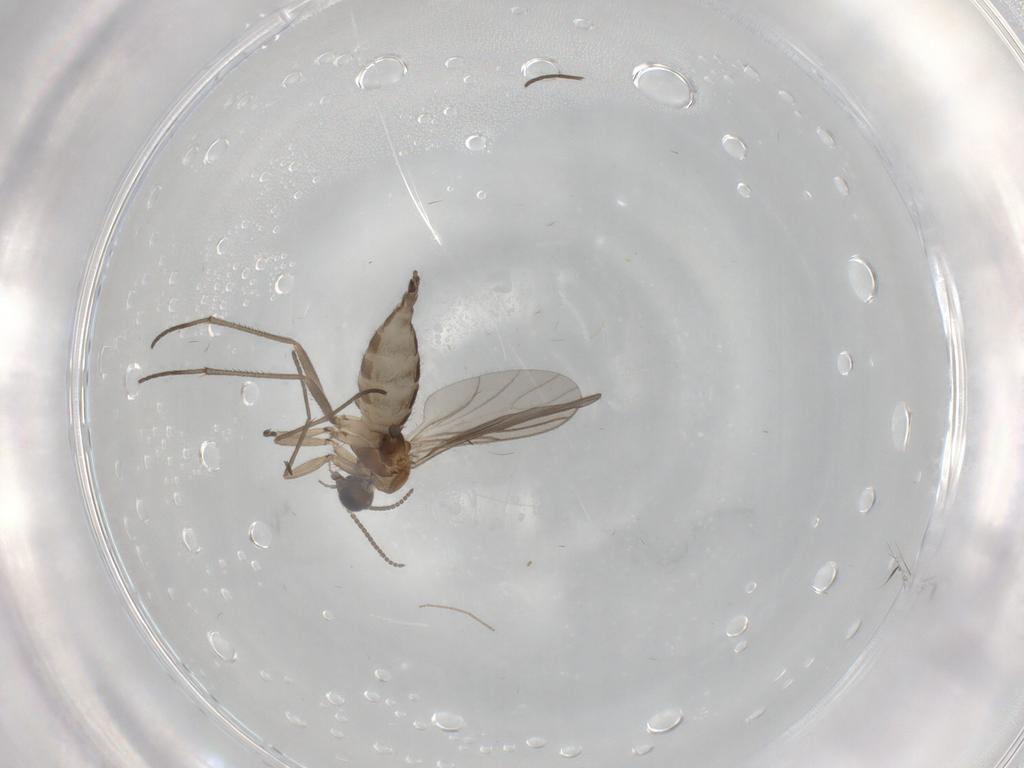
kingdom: Animalia
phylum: Arthropoda
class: Insecta
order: Diptera
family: Sciaridae
